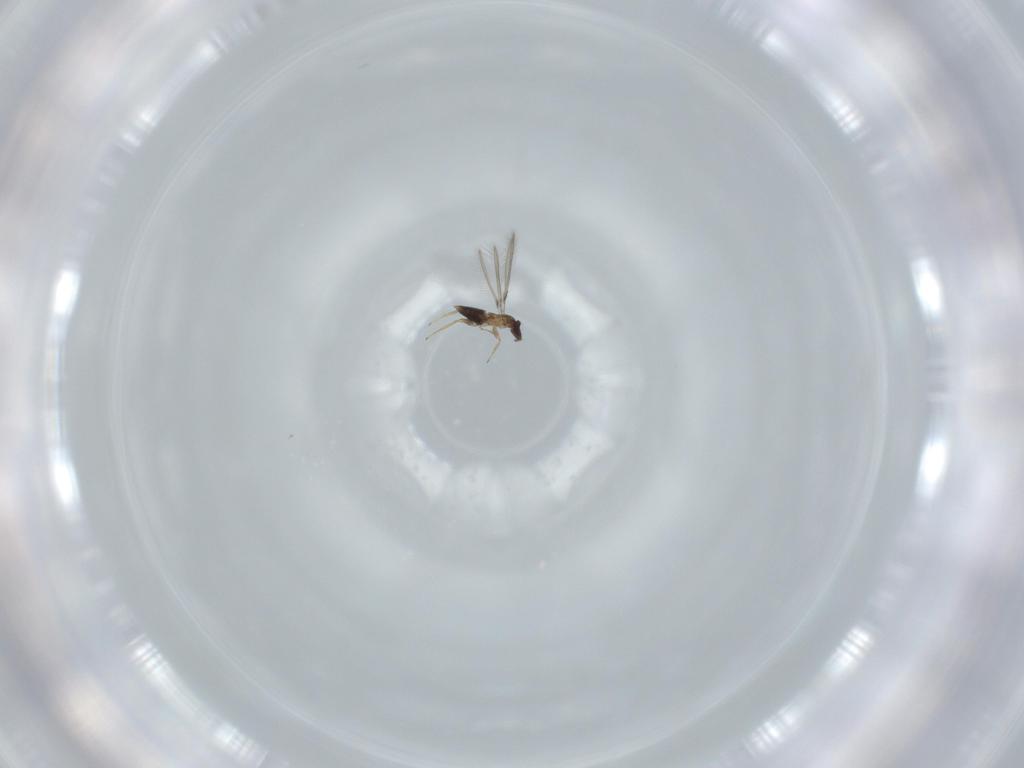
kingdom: Animalia
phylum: Arthropoda
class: Insecta
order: Hymenoptera
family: Mymaridae
